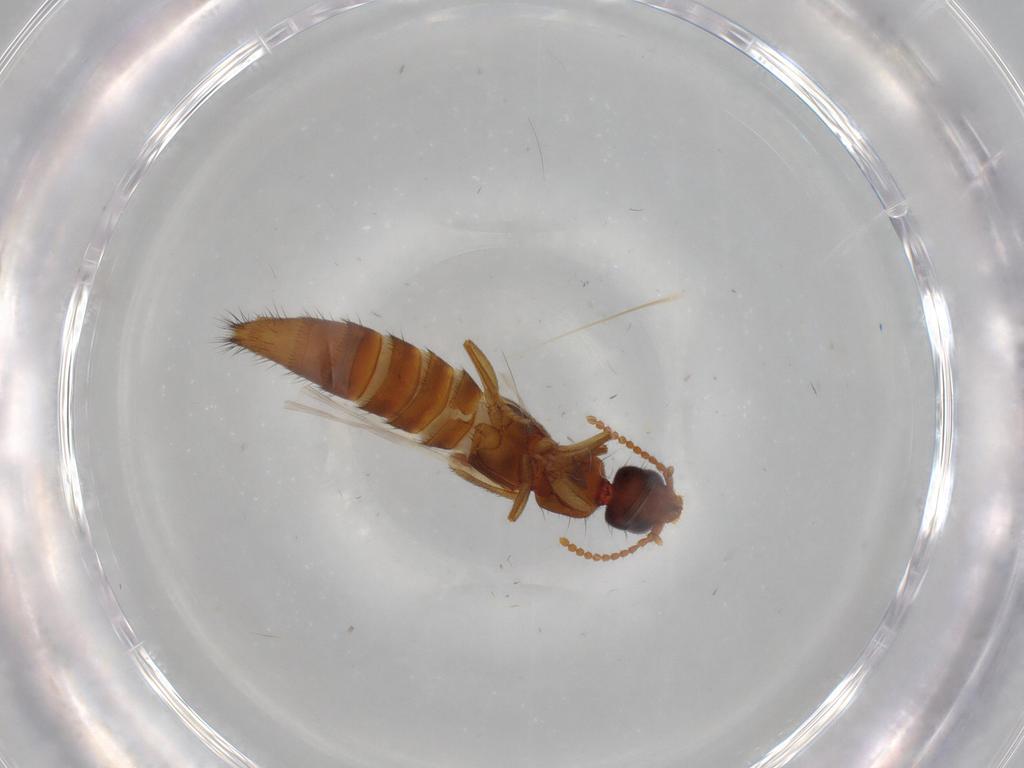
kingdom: Animalia
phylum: Arthropoda
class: Insecta
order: Coleoptera
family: Staphylinidae
